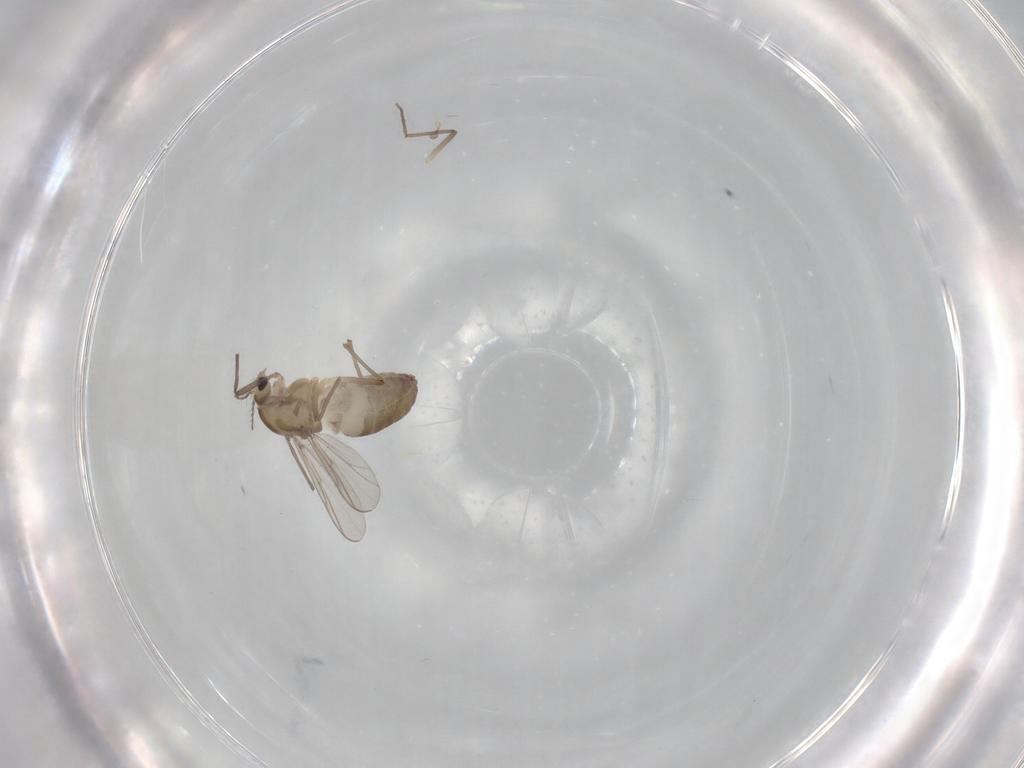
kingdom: Animalia
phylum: Arthropoda
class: Insecta
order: Diptera
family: Chironomidae
